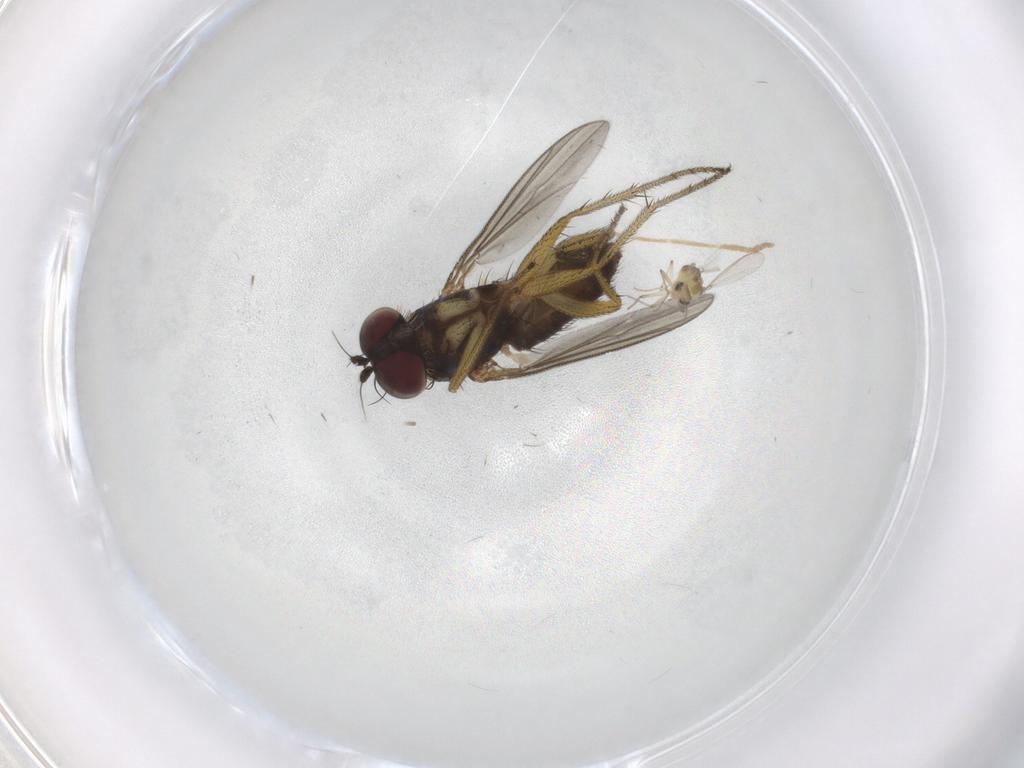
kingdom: Animalia
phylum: Arthropoda
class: Insecta
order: Diptera
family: Chironomidae
